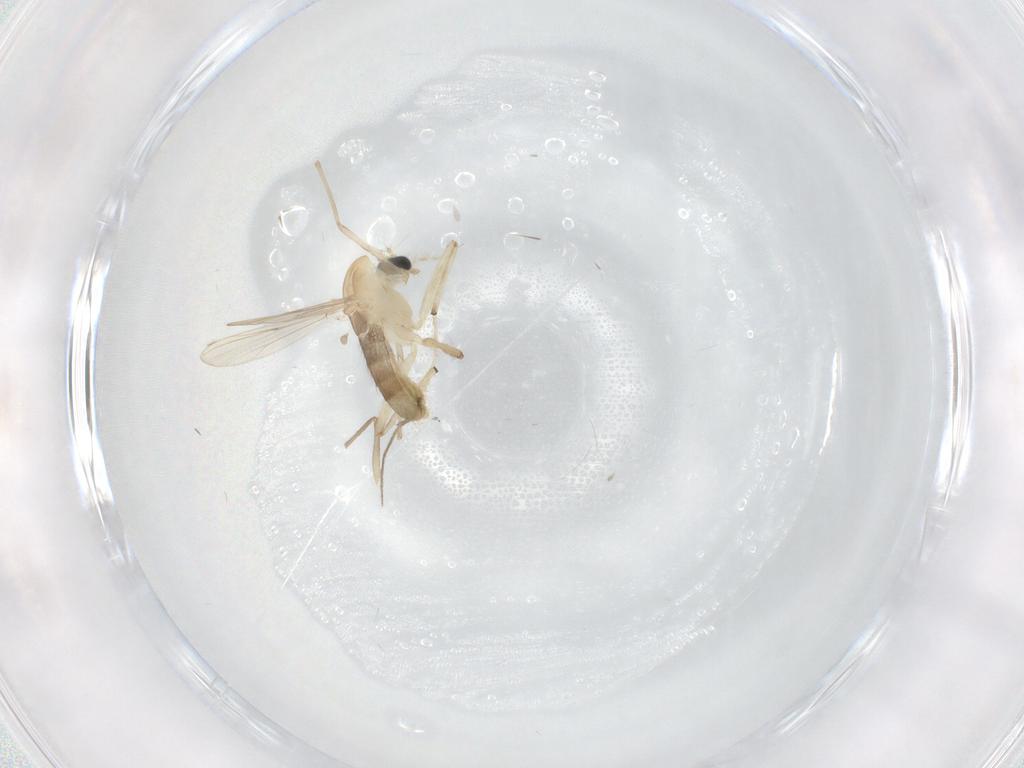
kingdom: Animalia
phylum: Arthropoda
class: Insecta
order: Diptera
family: Chironomidae
